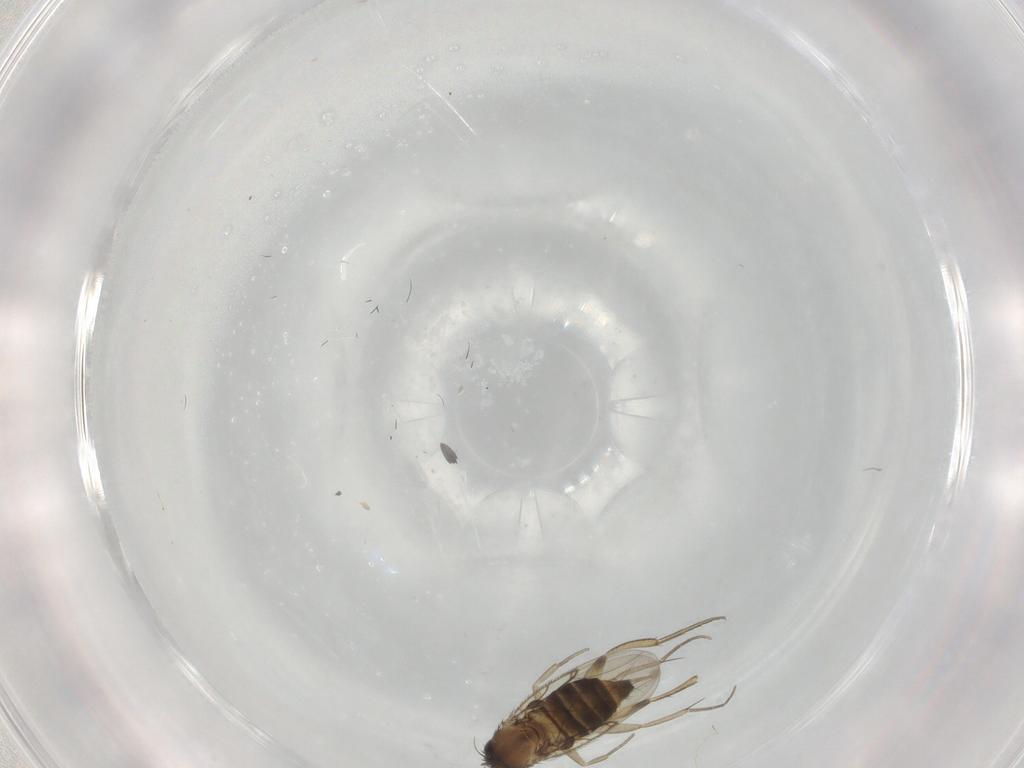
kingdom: Animalia
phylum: Arthropoda
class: Insecta
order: Diptera
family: Phoridae
